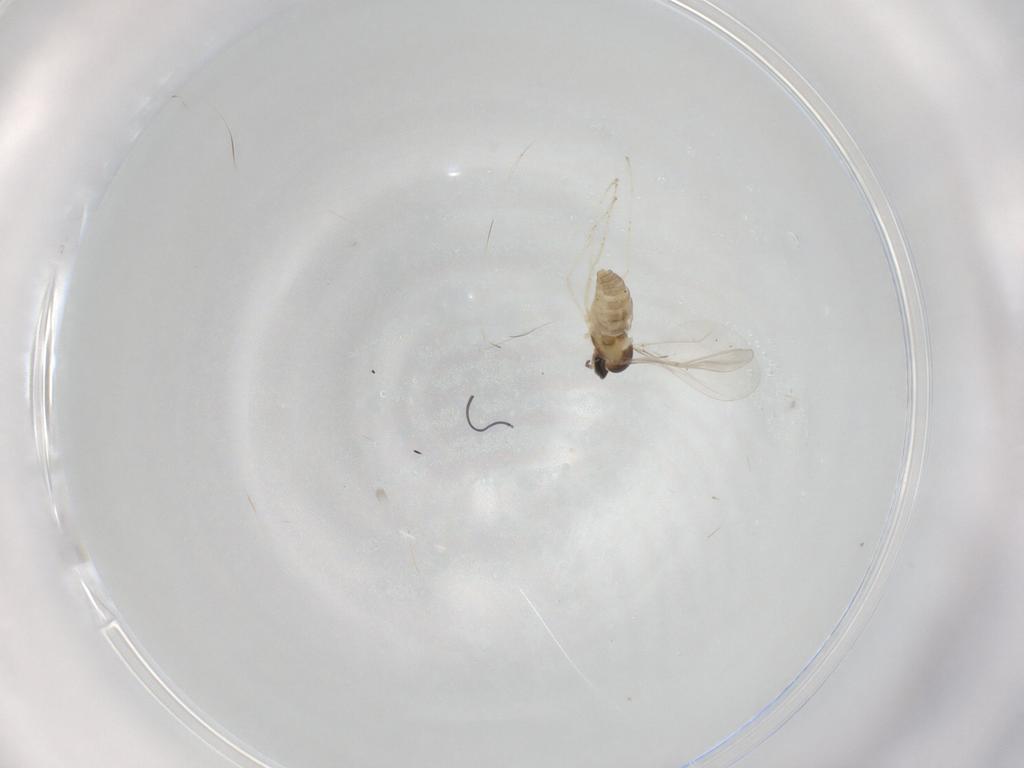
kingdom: Animalia
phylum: Arthropoda
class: Insecta
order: Diptera
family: Cecidomyiidae
